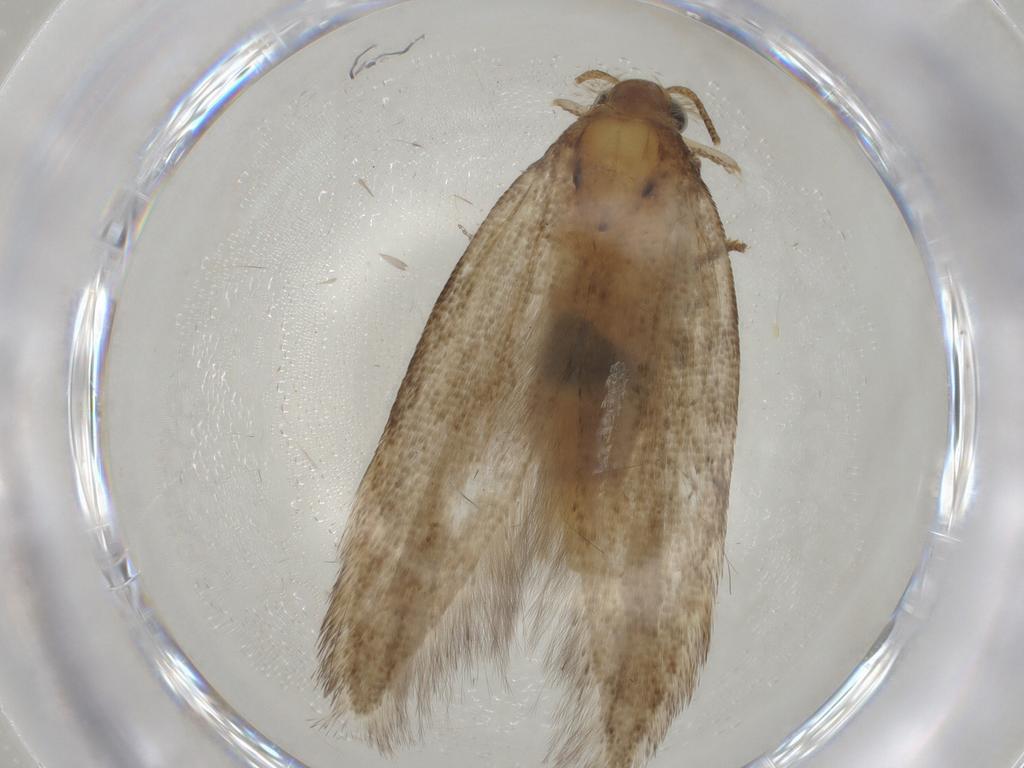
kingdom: Animalia
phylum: Arthropoda
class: Insecta
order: Lepidoptera
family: Gelechiidae
